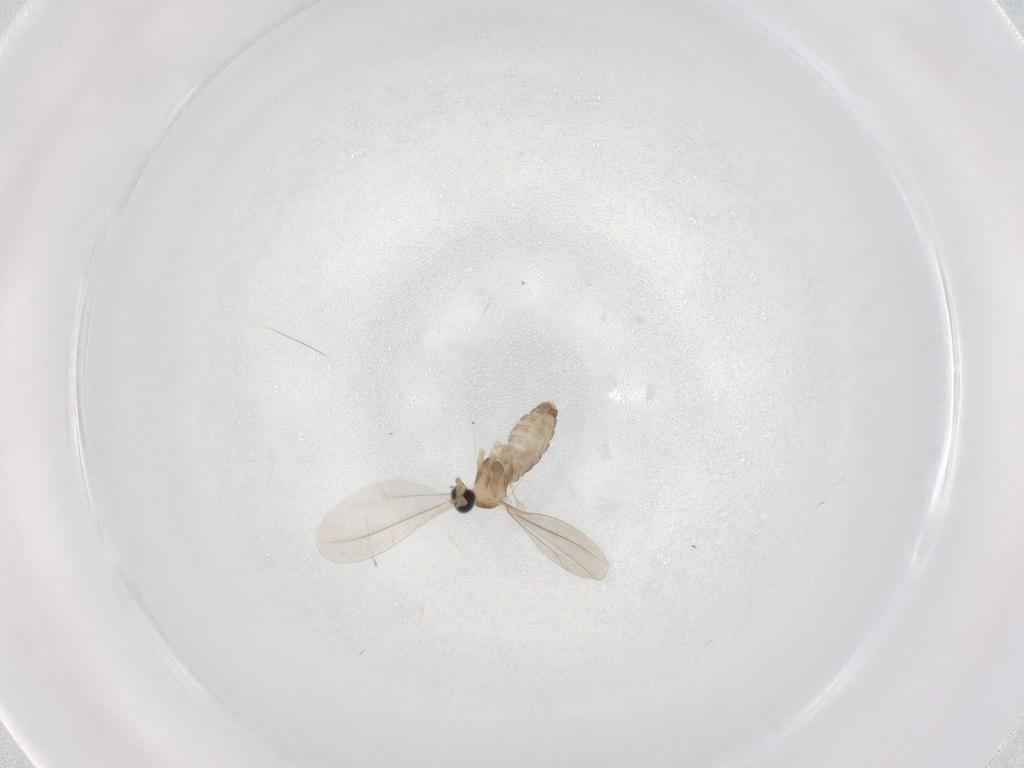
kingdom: Animalia
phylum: Arthropoda
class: Insecta
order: Diptera
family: Cecidomyiidae
